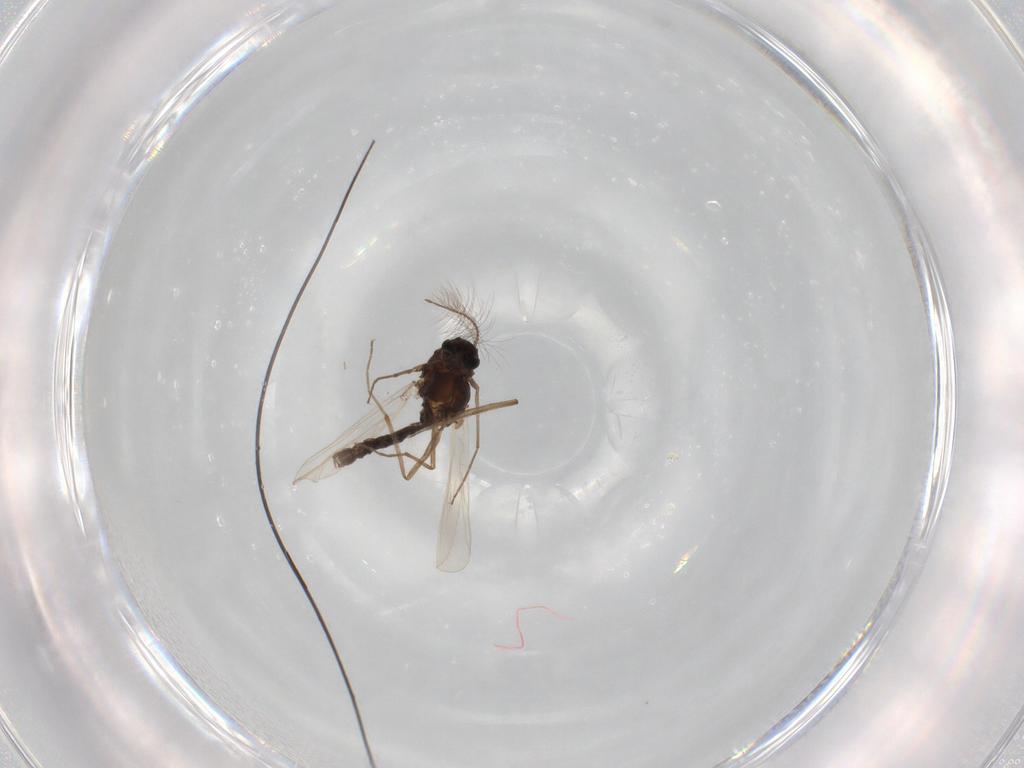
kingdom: Animalia
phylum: Arthropoda
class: Insecta
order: Diptera
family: Chironomidae
